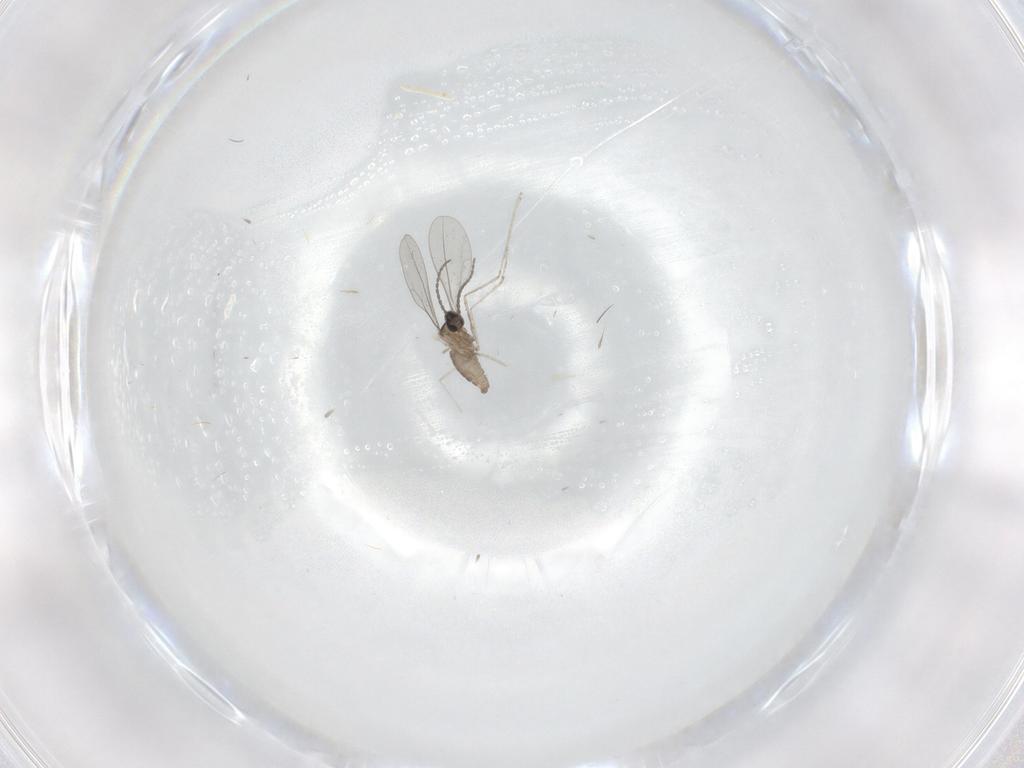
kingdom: Animalia
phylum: Arthropoda
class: Insecta
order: Diptera
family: Cecidomyiidae
